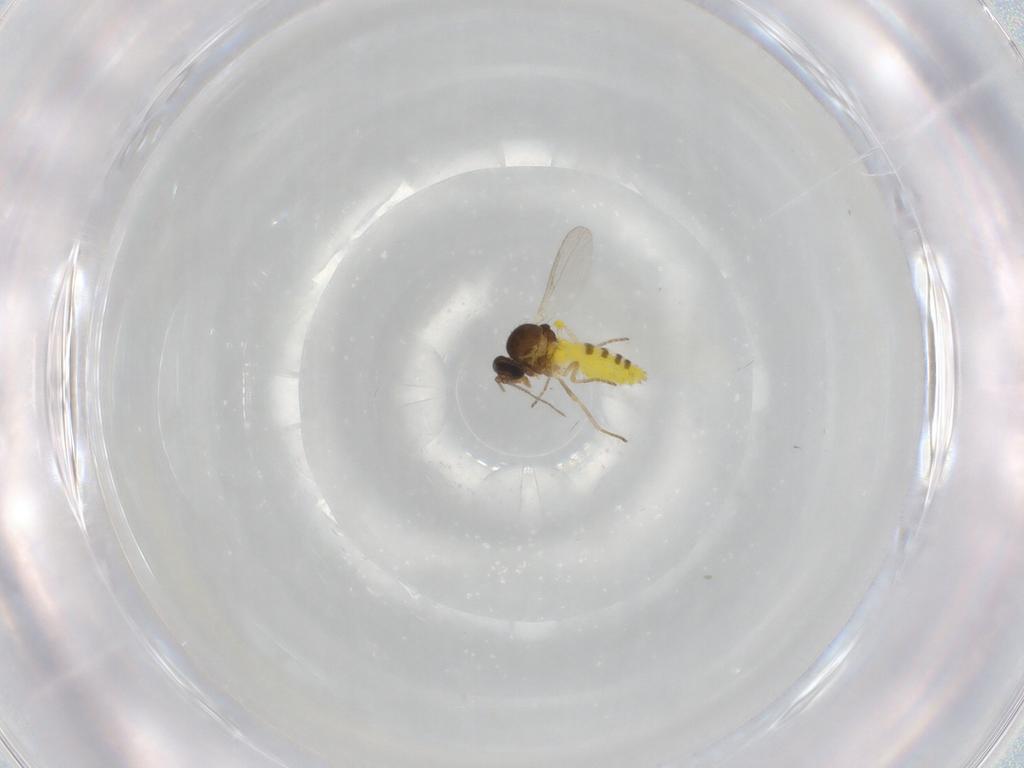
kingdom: Animalia
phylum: Arthropoda
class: Insecta
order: Diptera
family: Ceratopogonidae
